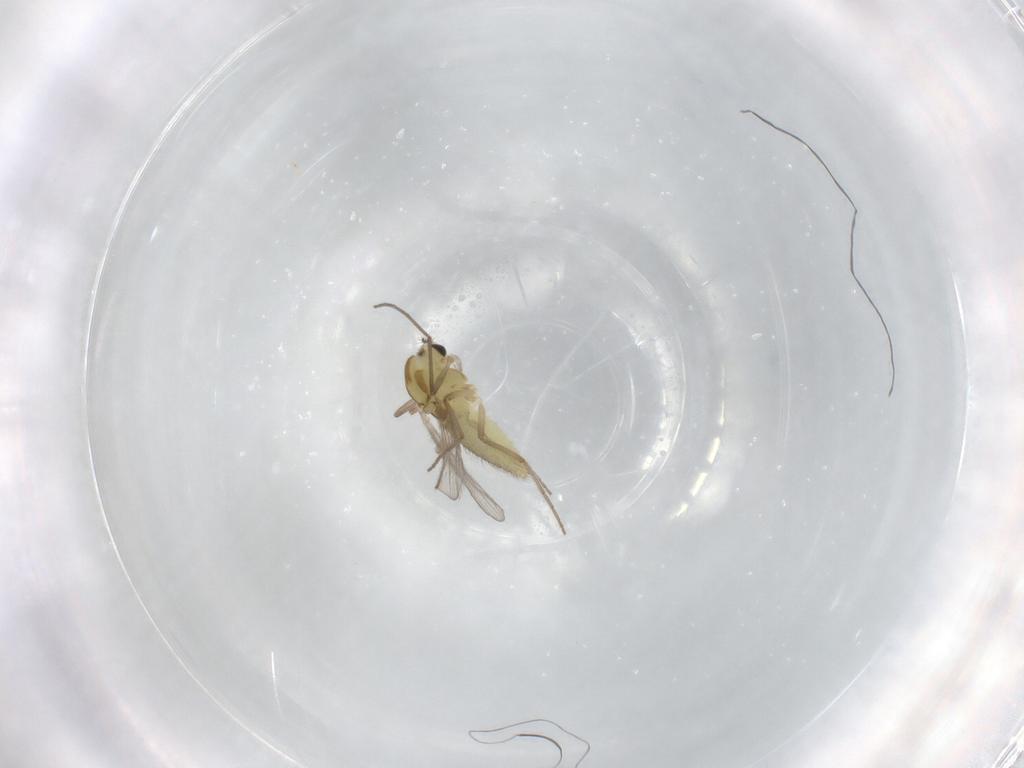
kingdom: Animalia
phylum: Arthropoda
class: Insecta
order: Diptera
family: Chironomidae
